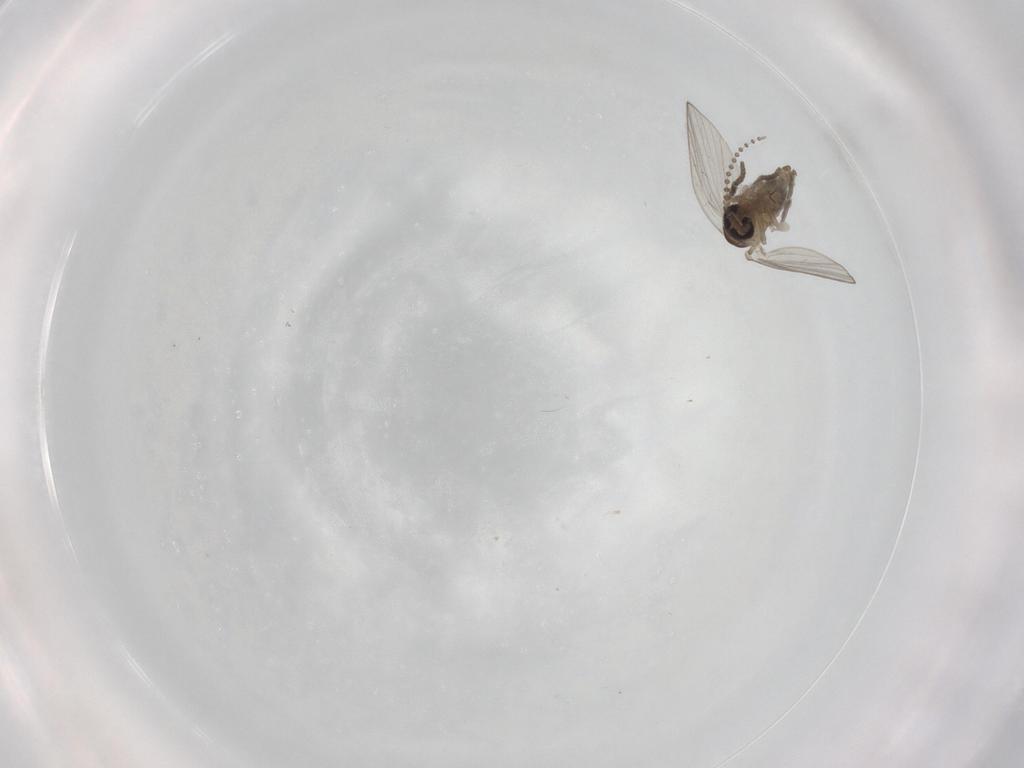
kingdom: Animalia
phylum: Arthropoda
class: Insecta
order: Diptera
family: Psychodidae
